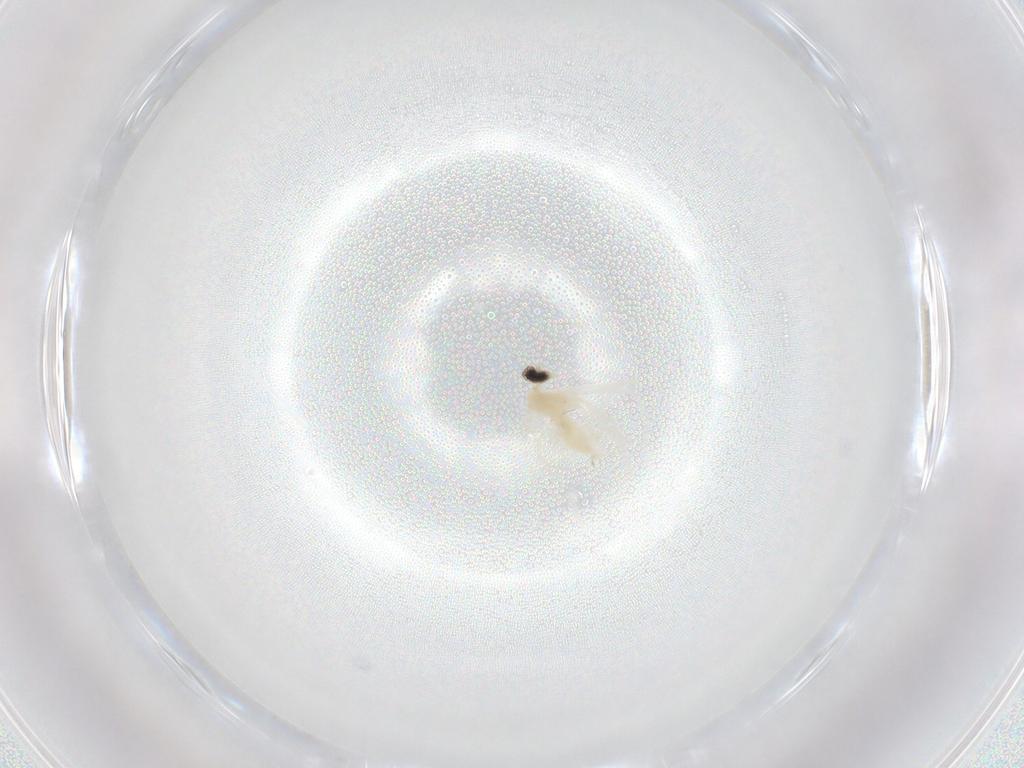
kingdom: Animalia
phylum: Arthropoda
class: Insecta
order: Diptera
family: Cecidomyiidae
